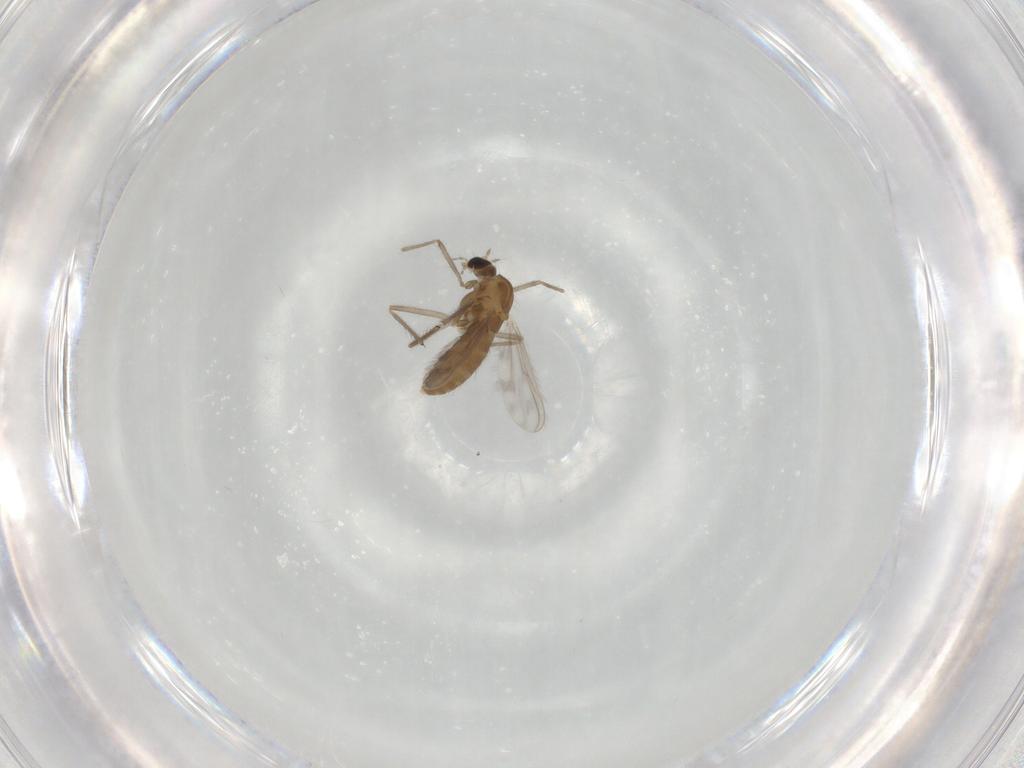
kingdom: Animalia
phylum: Arthropoda
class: Insecta
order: Diptera
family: Chironomidae
